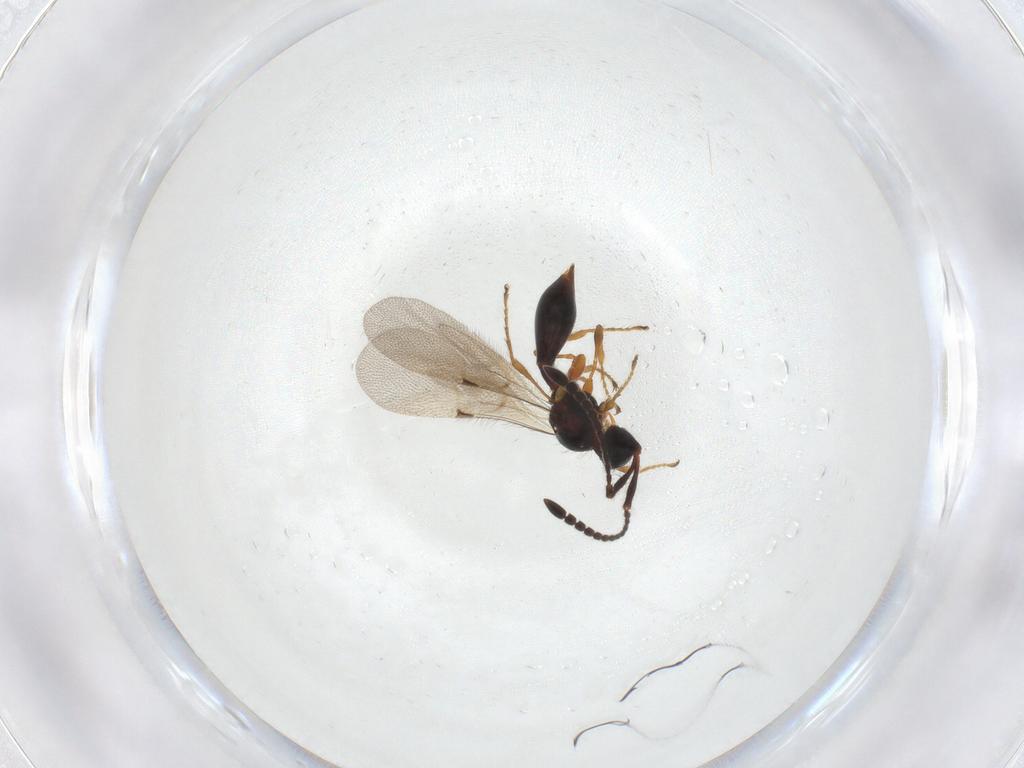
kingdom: Animalia
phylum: Arthropoda
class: Insecta
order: Hymenoptera
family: Diapriidae
